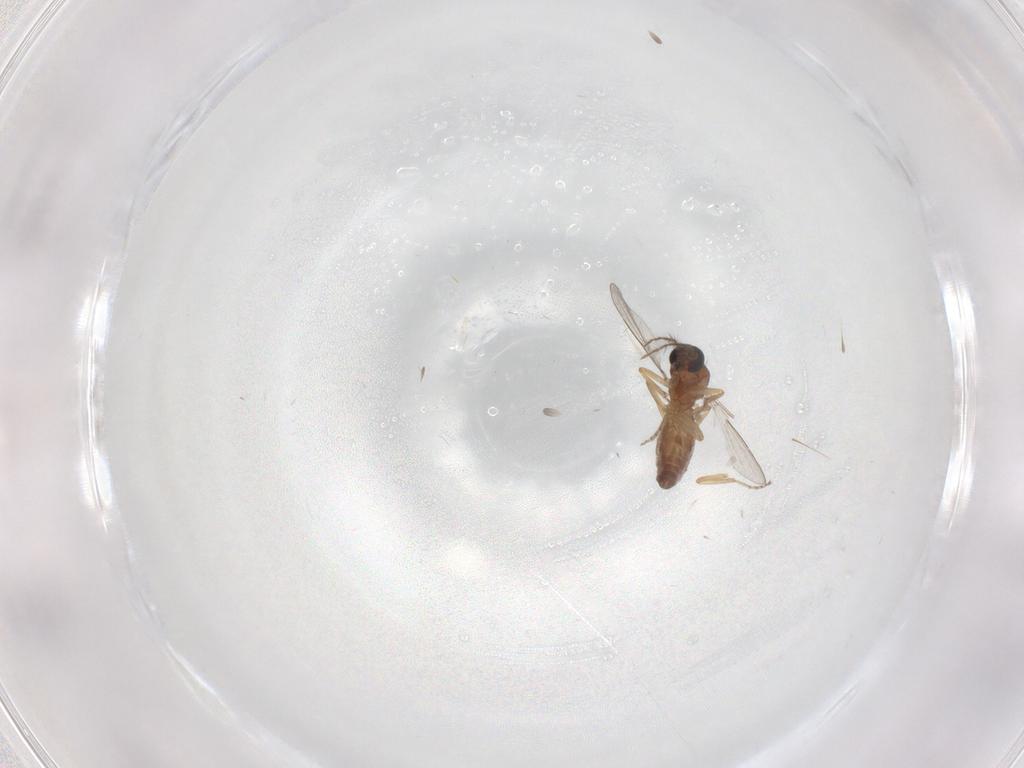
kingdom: Animalia
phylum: Arthropoda
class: Insecta
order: Diptera
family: Ceratopogonidae
